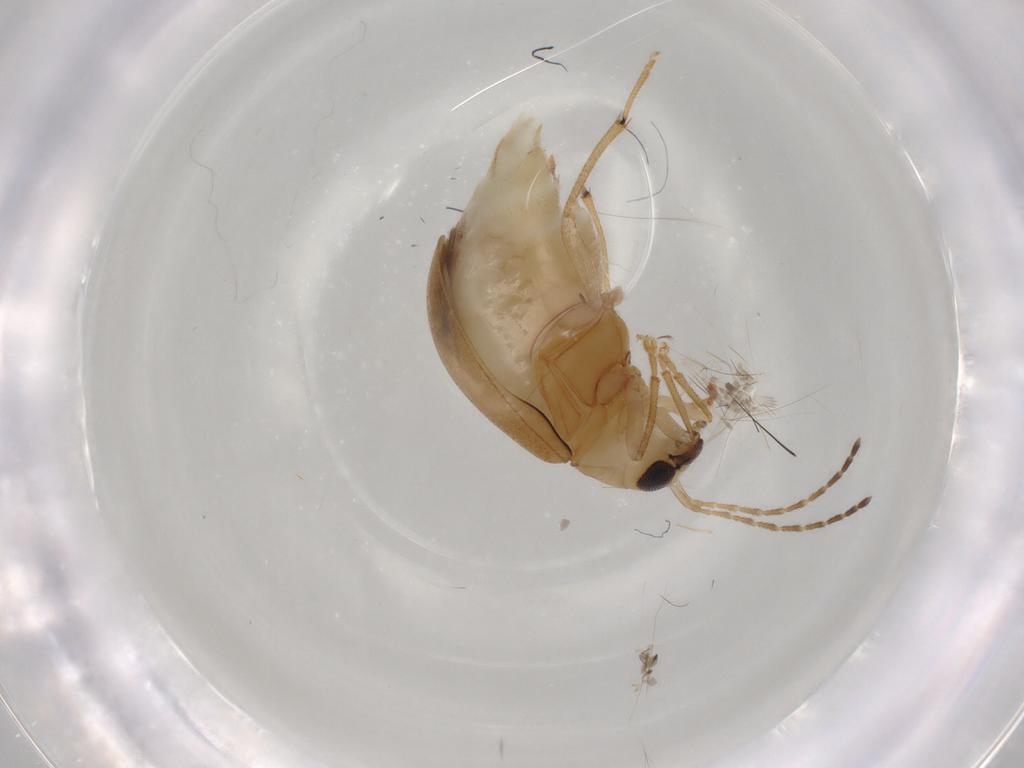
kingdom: Animalia
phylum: Arthropoda
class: Insecta
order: Coleoptera
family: Chrysomelidae
